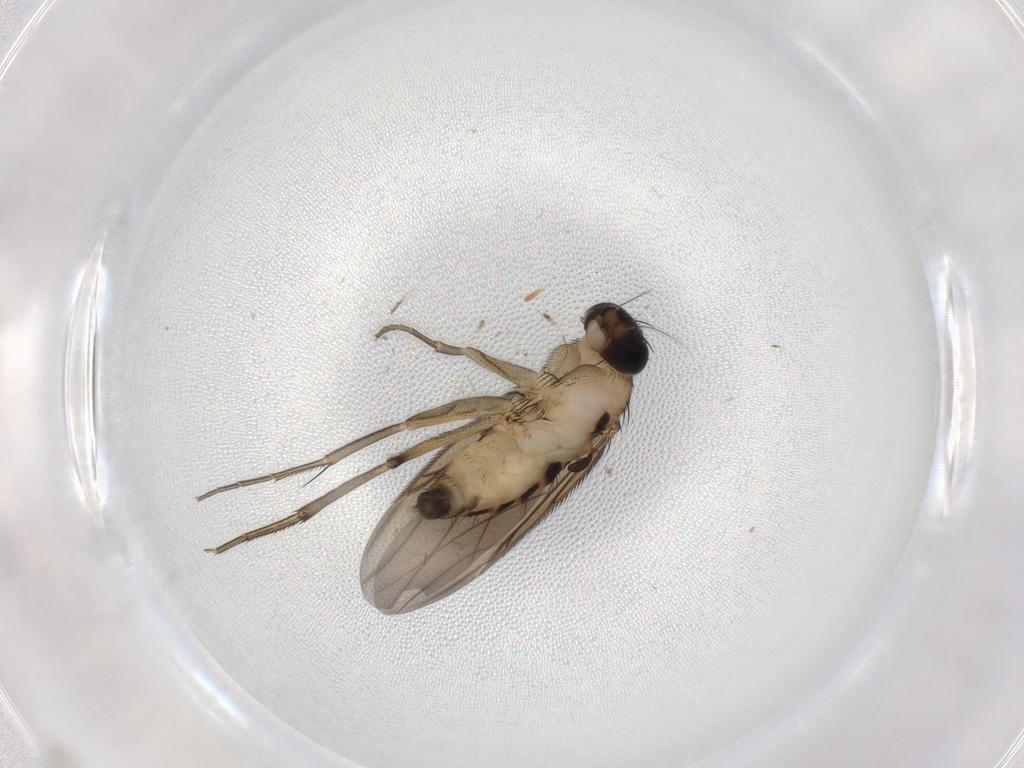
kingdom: Animalia
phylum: Arthropoda
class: Insecta
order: Diptera
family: Phoridae
